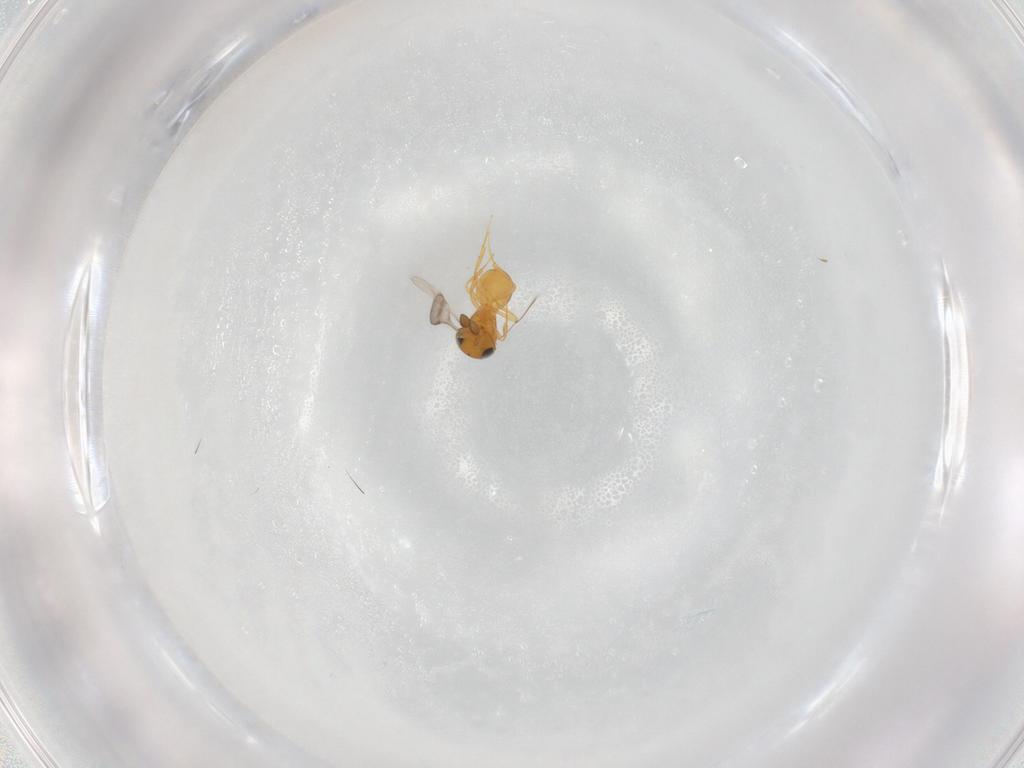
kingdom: Animalia
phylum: Arthropoda
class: Insecta
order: Hymenoptera
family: Scelionidae
